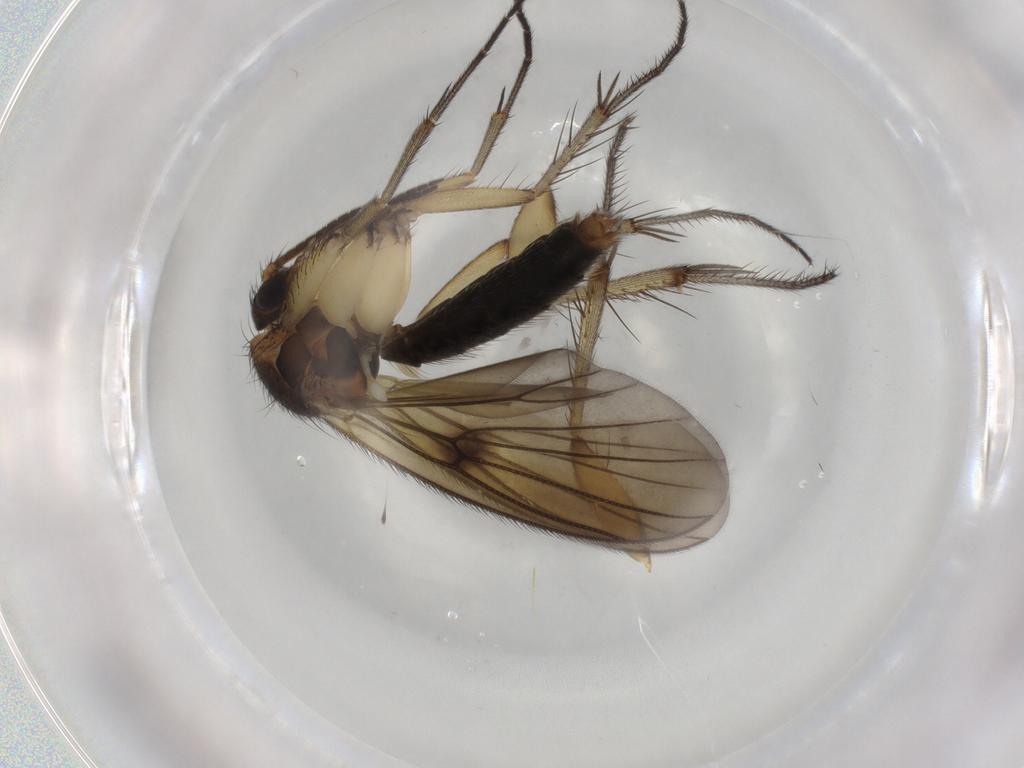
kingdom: Animalia
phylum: Arthropoda
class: Insecta
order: Diptera
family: Mycetophilidae
